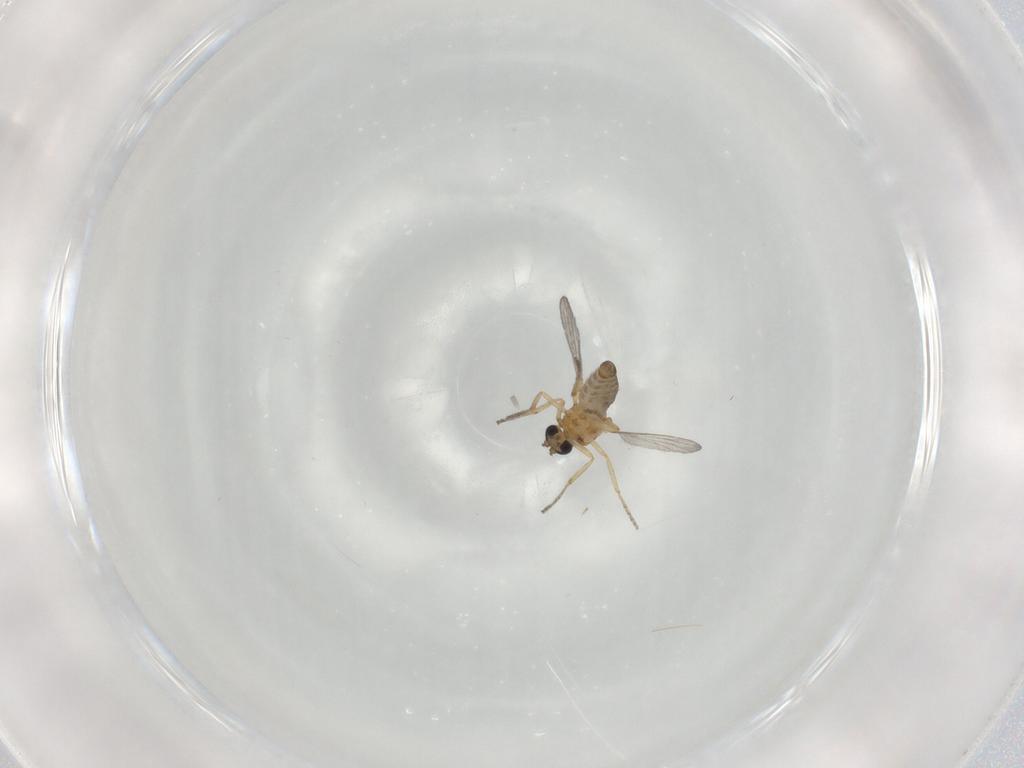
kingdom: Animalia
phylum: Arthropoda
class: Insecta
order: Diptera
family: Ceratopogonidae
